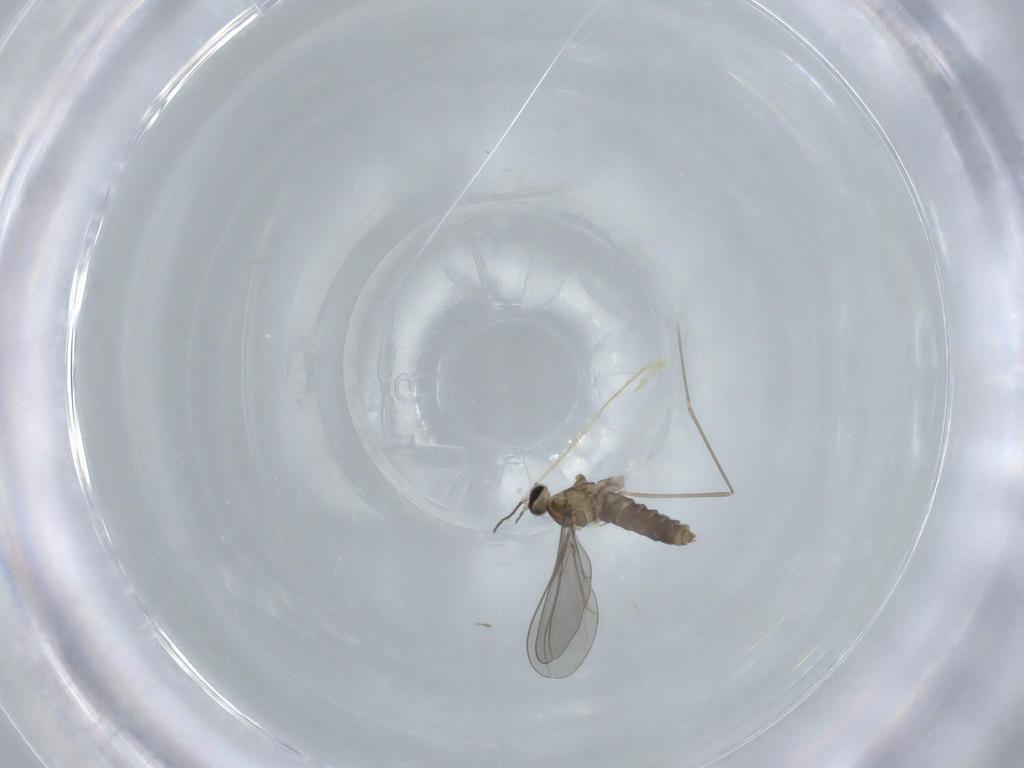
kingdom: Animalia
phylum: Arthropoda
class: Insecta
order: Diptera
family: Cecidomyiidae
